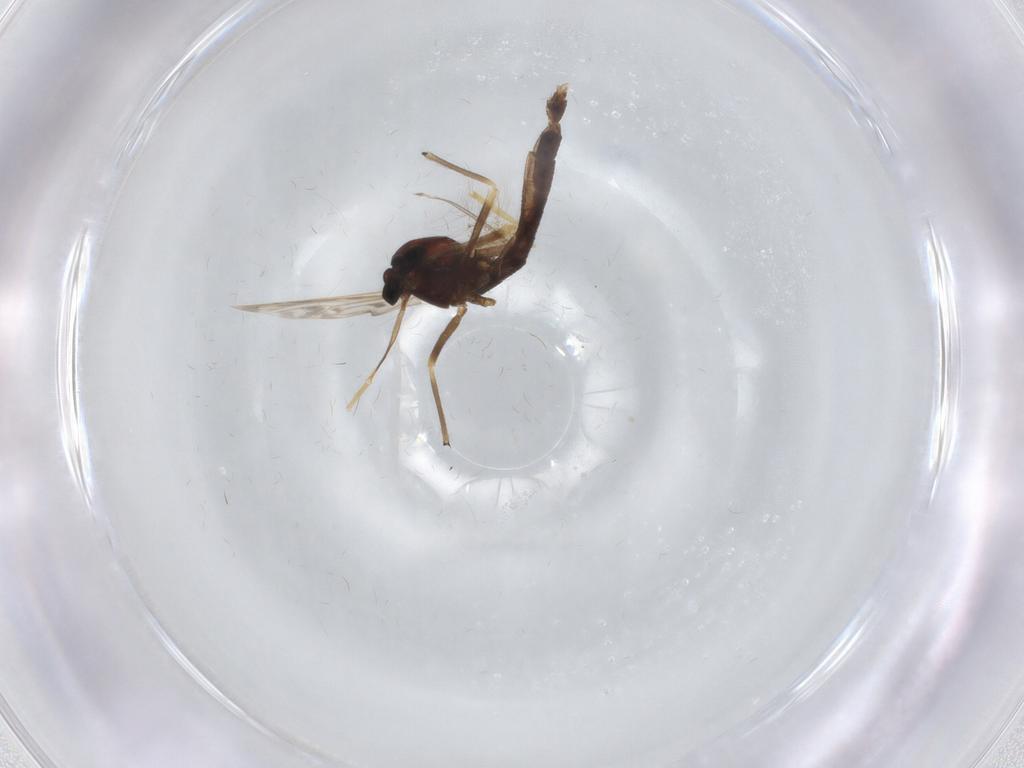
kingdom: Animalia
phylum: Arthropoda
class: Insecta
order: Diptera
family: Chironomidae
